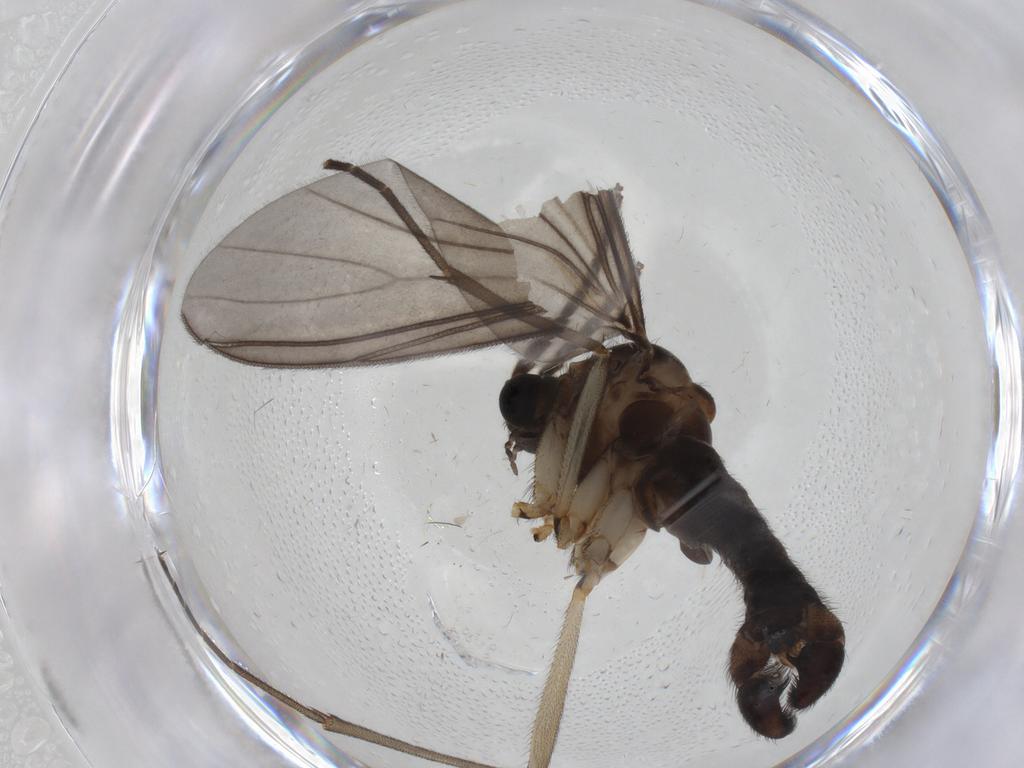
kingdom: Animalia
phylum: Arthropoda
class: Insecta
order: Diptera
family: Sciaridae
